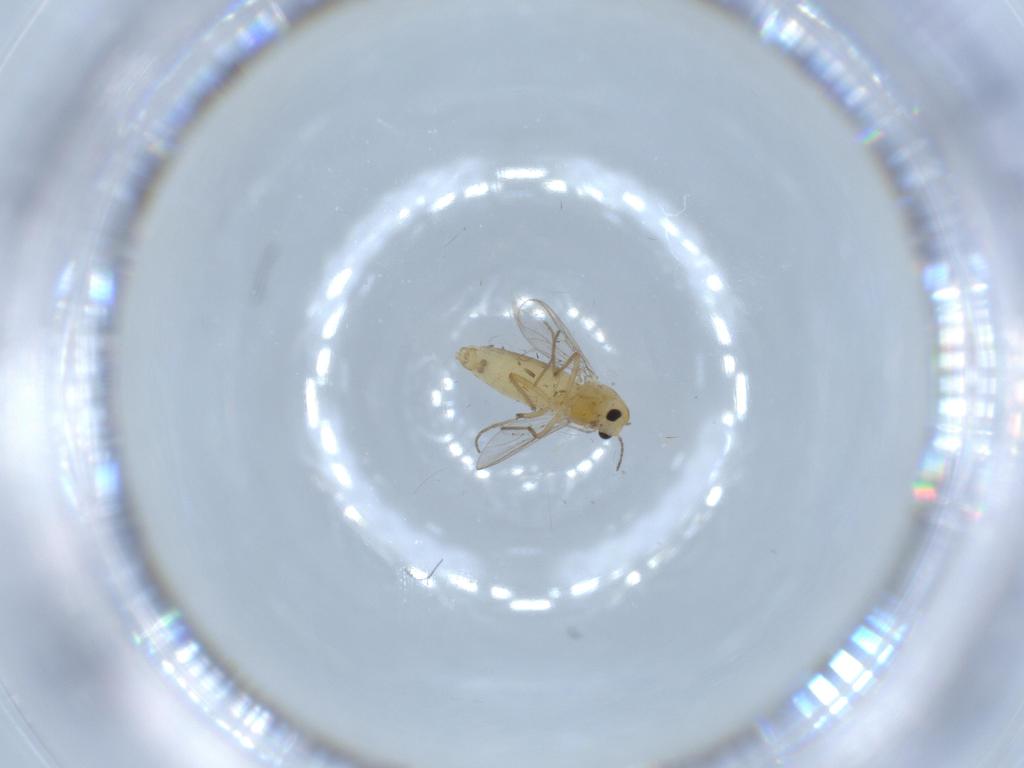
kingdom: Animalia
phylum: Arthropoda
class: Insecta
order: Diptera
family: Chironomidae
